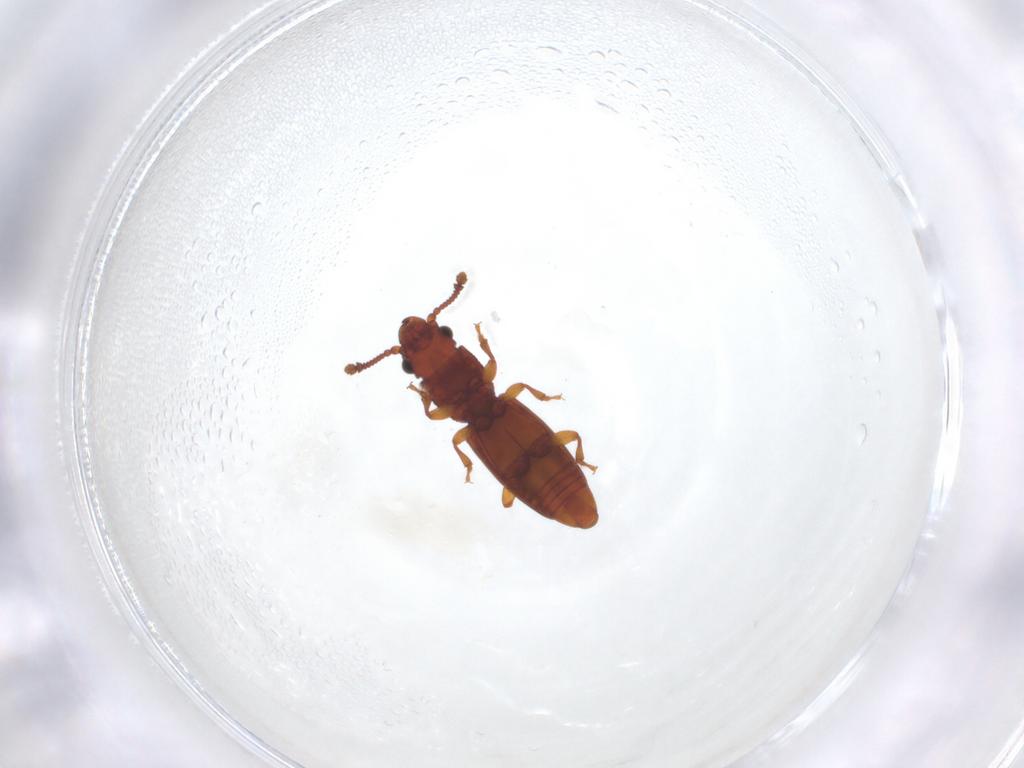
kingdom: Animalia
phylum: Arthropoda
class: Insecta
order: Coleoptera
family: Monotomidae
